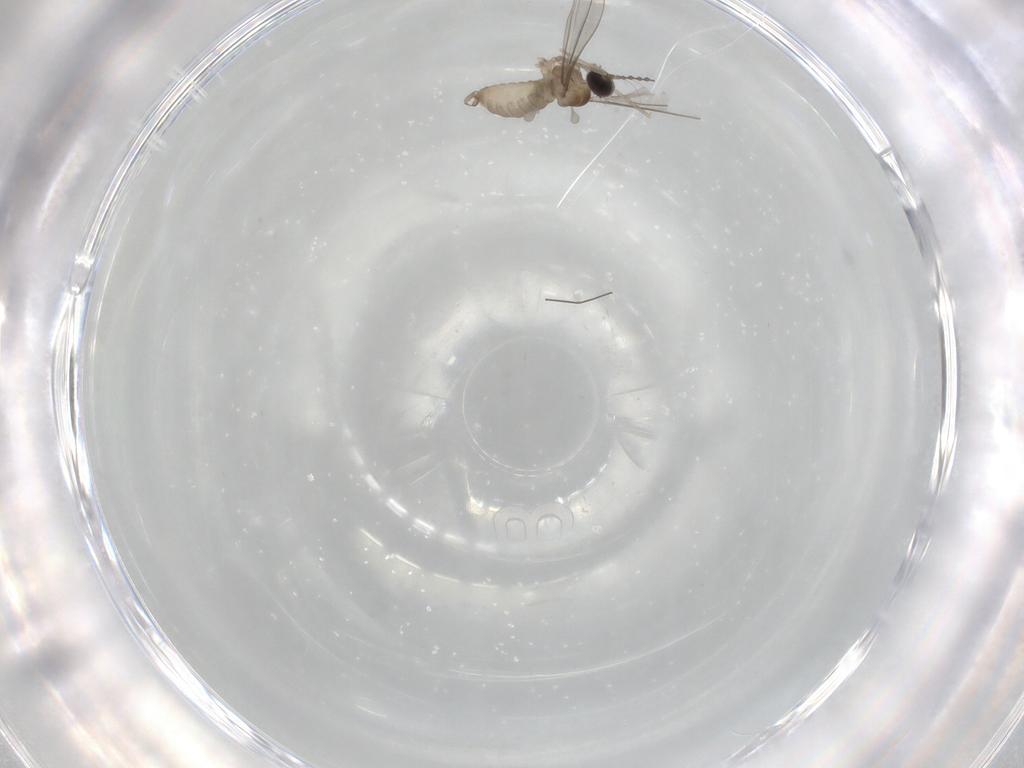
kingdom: Animalia
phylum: Arthropoda
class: Insecta
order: Diptera
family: Cecidomyiidae
